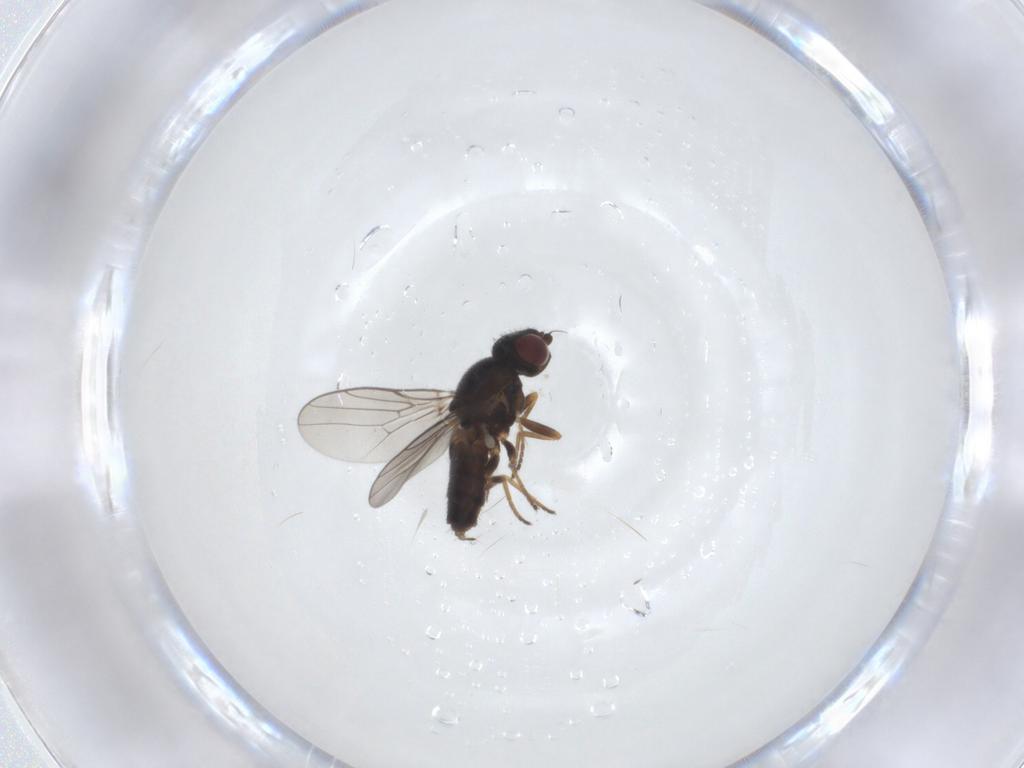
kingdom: Animalia
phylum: Arthropoda
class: Insecta
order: Diptera
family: Chloropidae
